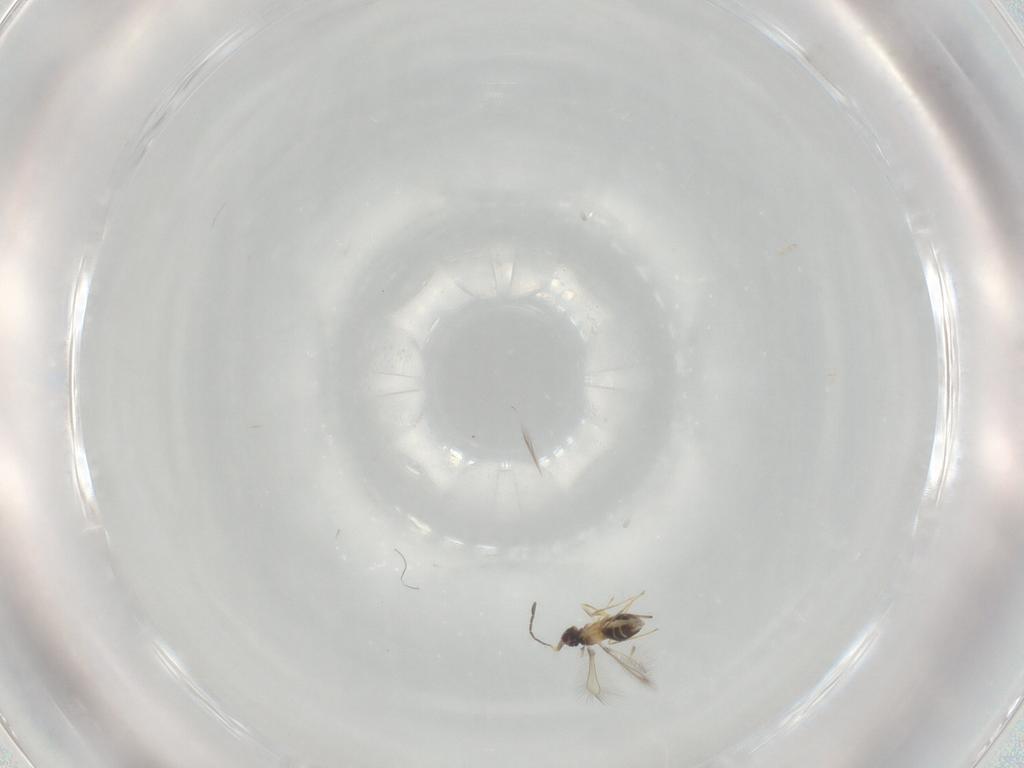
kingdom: Animalia
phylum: Arthropoda
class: Insecta
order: Hymenoptera
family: Mymaridae
